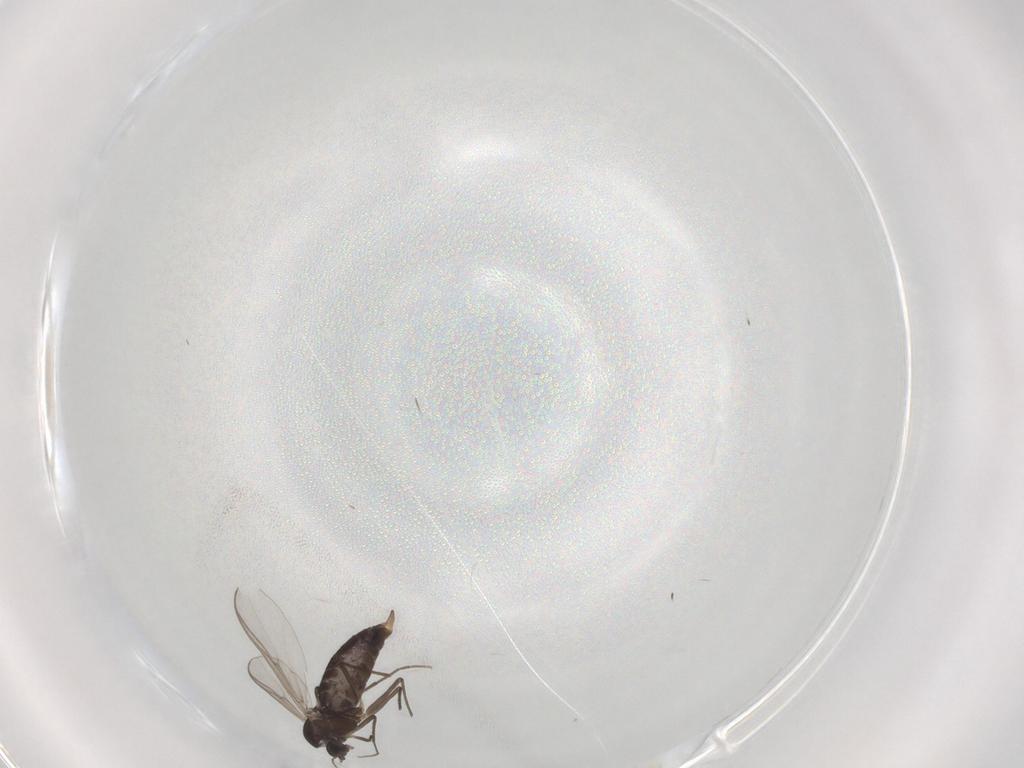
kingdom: Animalia
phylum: Arthropoda
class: Insecta
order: Diptera
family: Chironomidae
